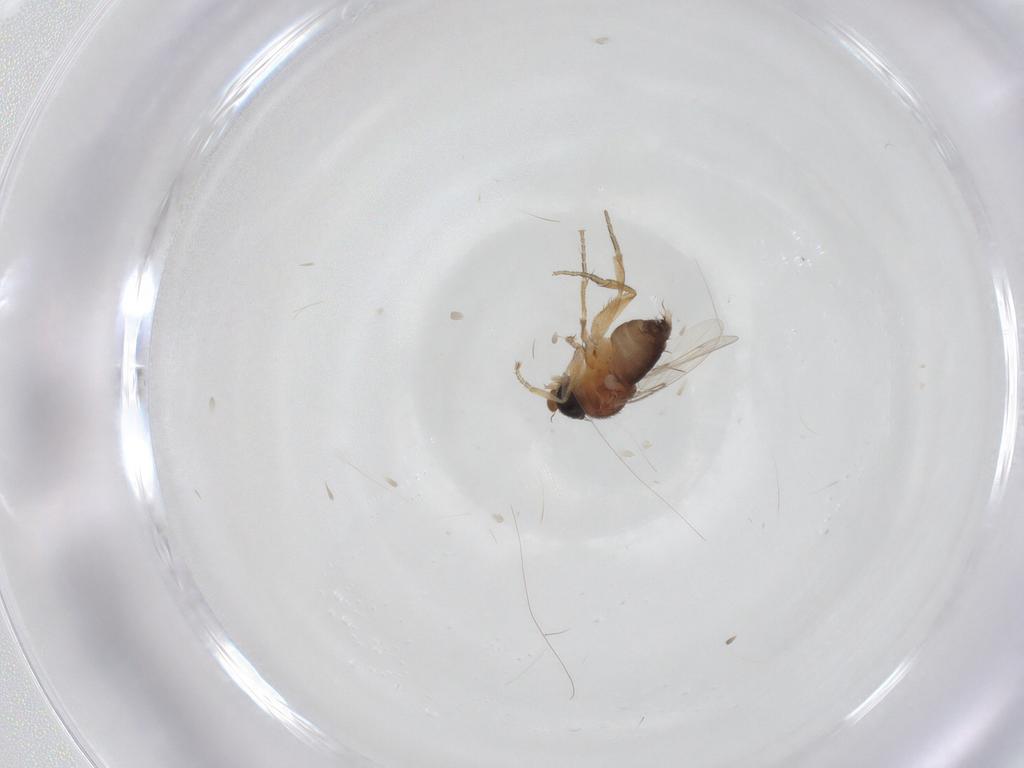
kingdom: Animalia
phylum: Arthropoda
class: Insecta
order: Diptera
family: Phoridae
